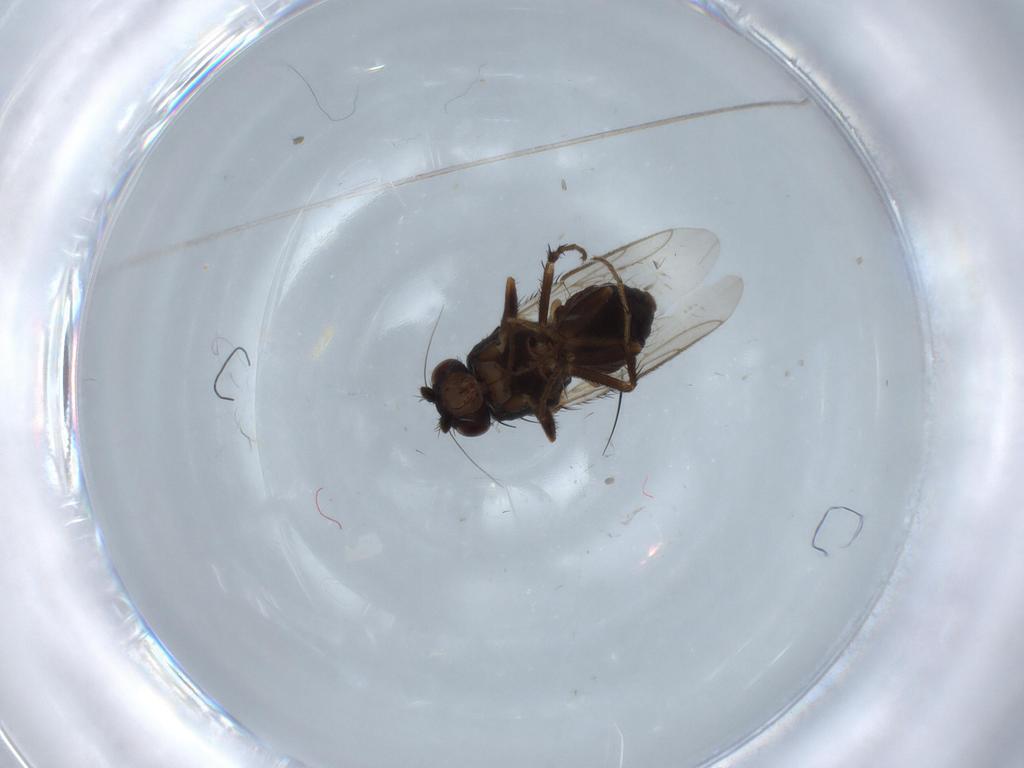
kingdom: Animalia
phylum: Arthropoda
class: Insecta
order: Diptera
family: Sphaeroceridae
